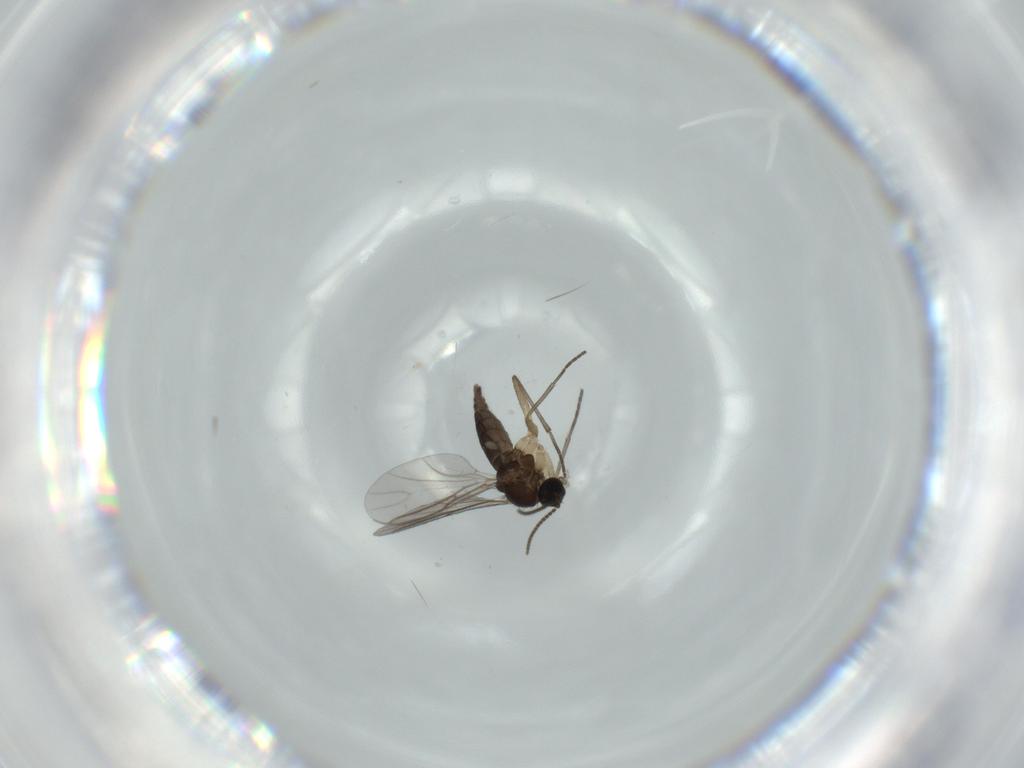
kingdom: Animalia
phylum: Arthropoda
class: Insecta
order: Diptera
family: Sciaridae
